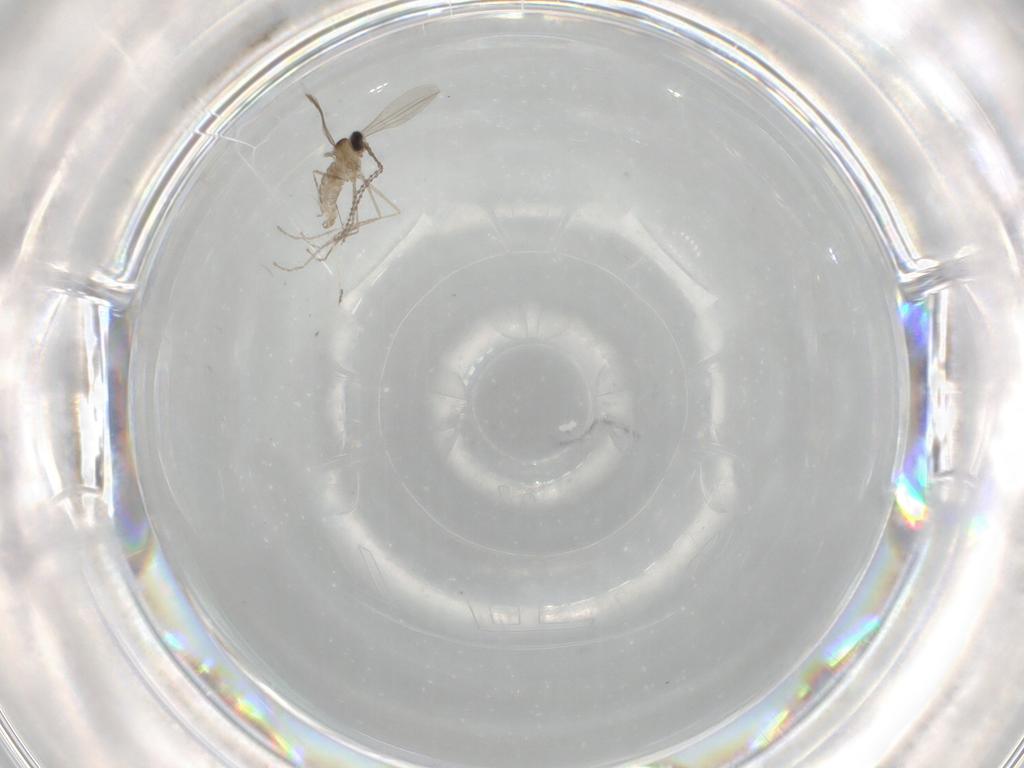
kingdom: Animalia
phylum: Arthropoda
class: Insecta
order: Diptera
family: Cecidomyiidae
